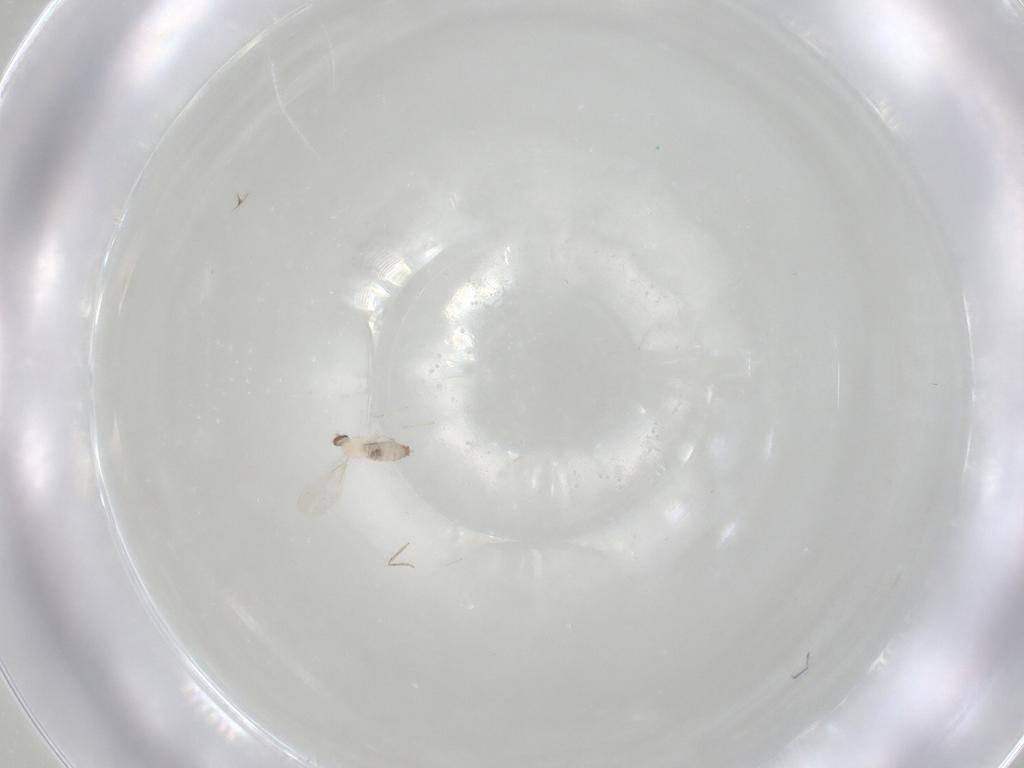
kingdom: Animalia
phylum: Arthropoda
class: Insecta
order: Diptera
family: Cecidomyiidae
